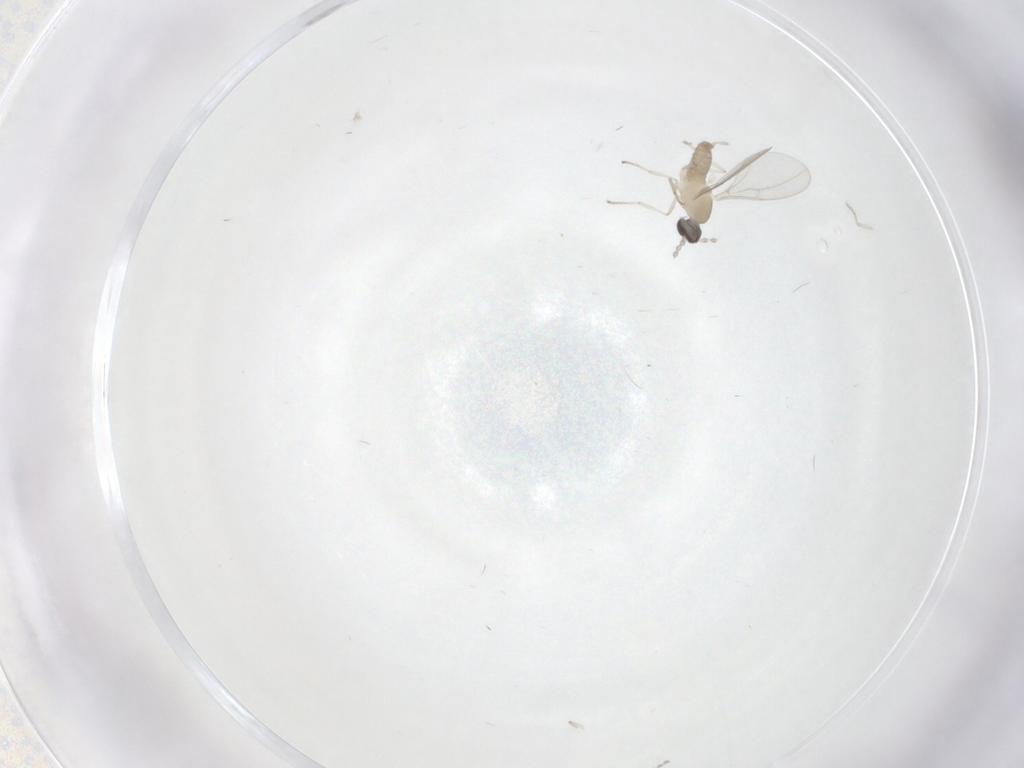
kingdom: Animalia
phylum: Arthropoda
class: Insecta
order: Diptera
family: Cecidomyiidae
